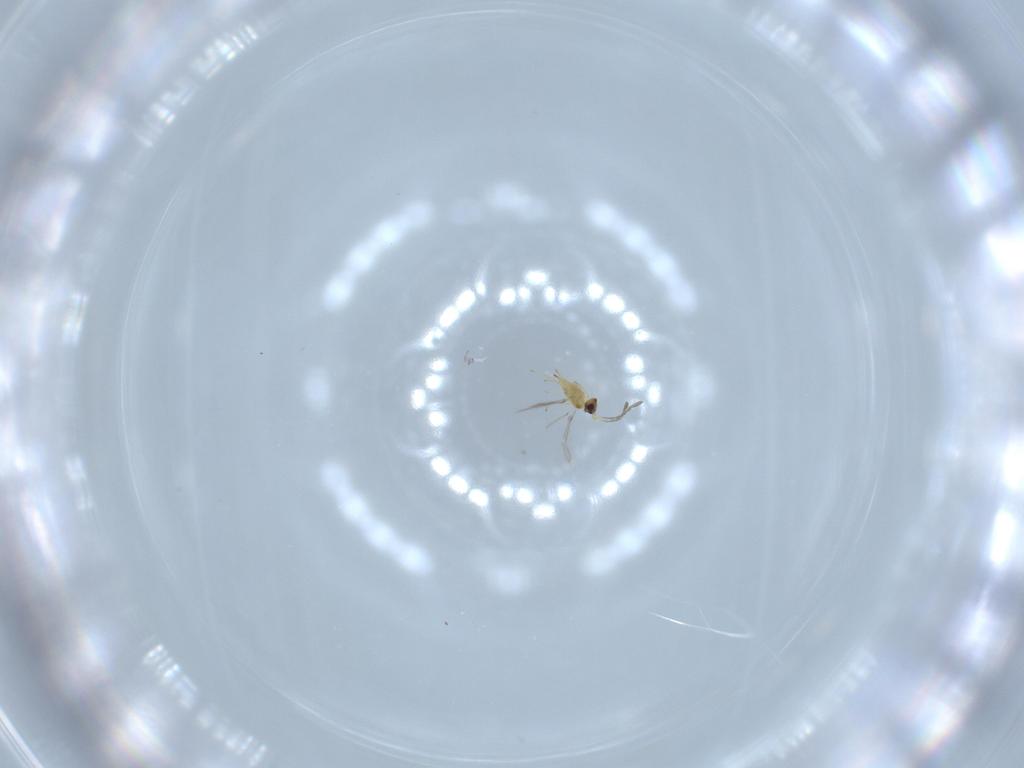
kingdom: Animalia
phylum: Arthropoda
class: Insecta
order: Hymenoptera
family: Mymaridae
